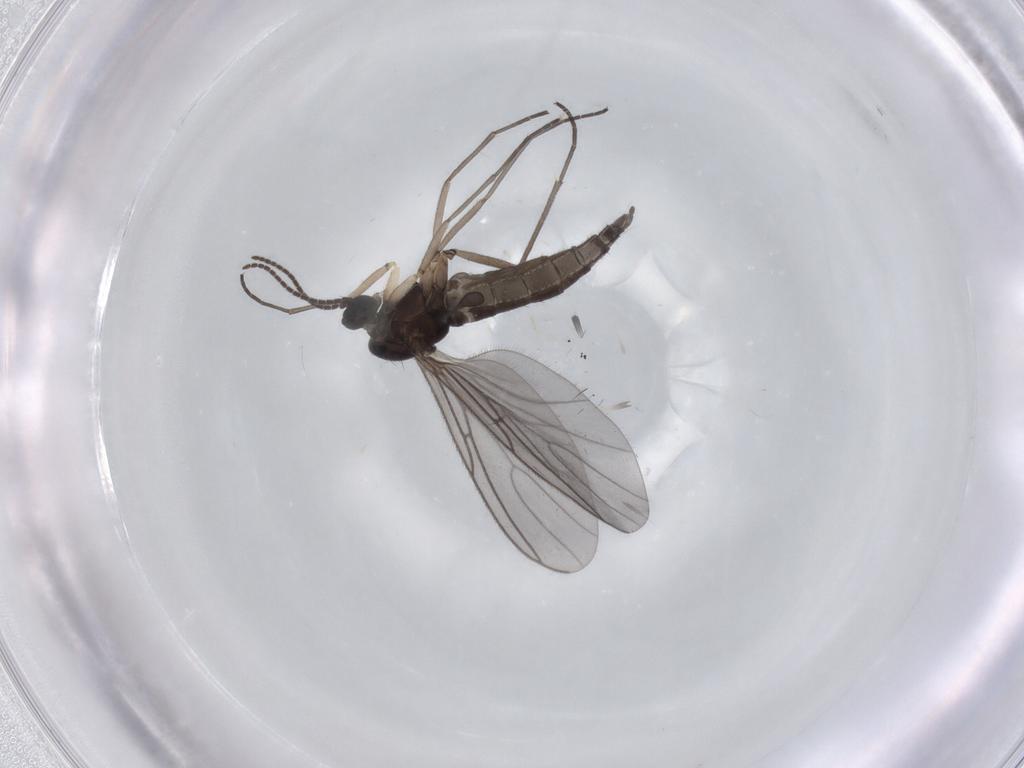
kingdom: Animalia
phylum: Arthropoda
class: Insecta
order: Diptera
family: Sciaridae
